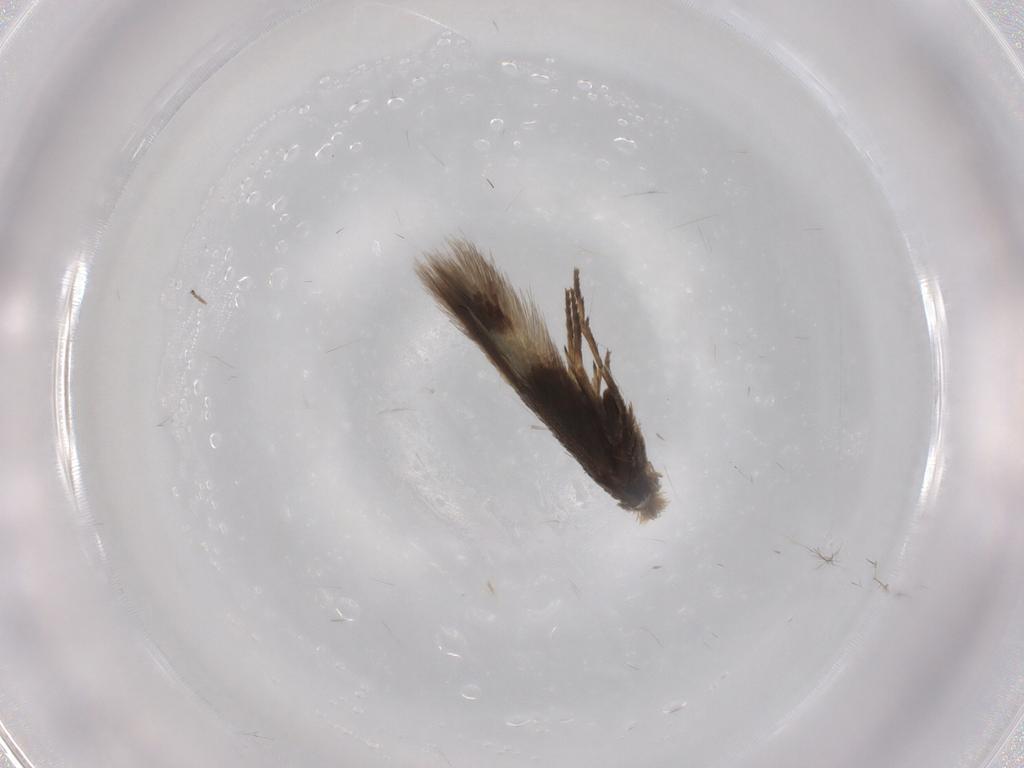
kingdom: Animalia
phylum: Arthropoda
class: Insecta
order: Lepidoptera
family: Nepticulidae
